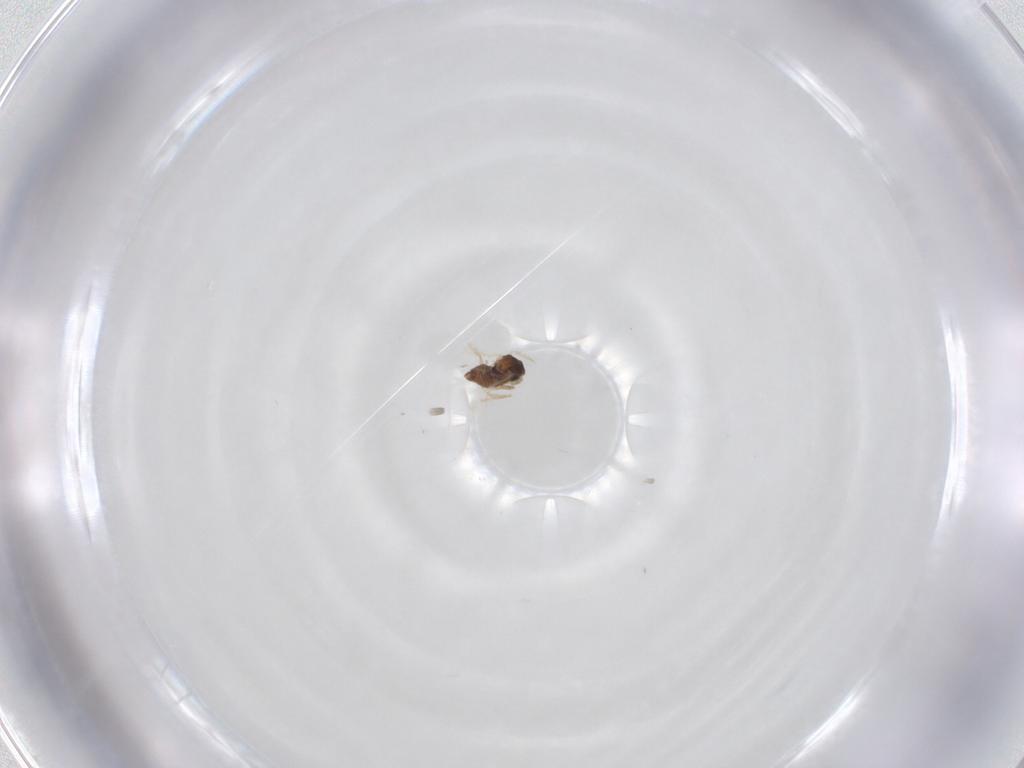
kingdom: Animalia
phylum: Arthropoda
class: Insecta
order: Diptera
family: Cecidomyiidae
